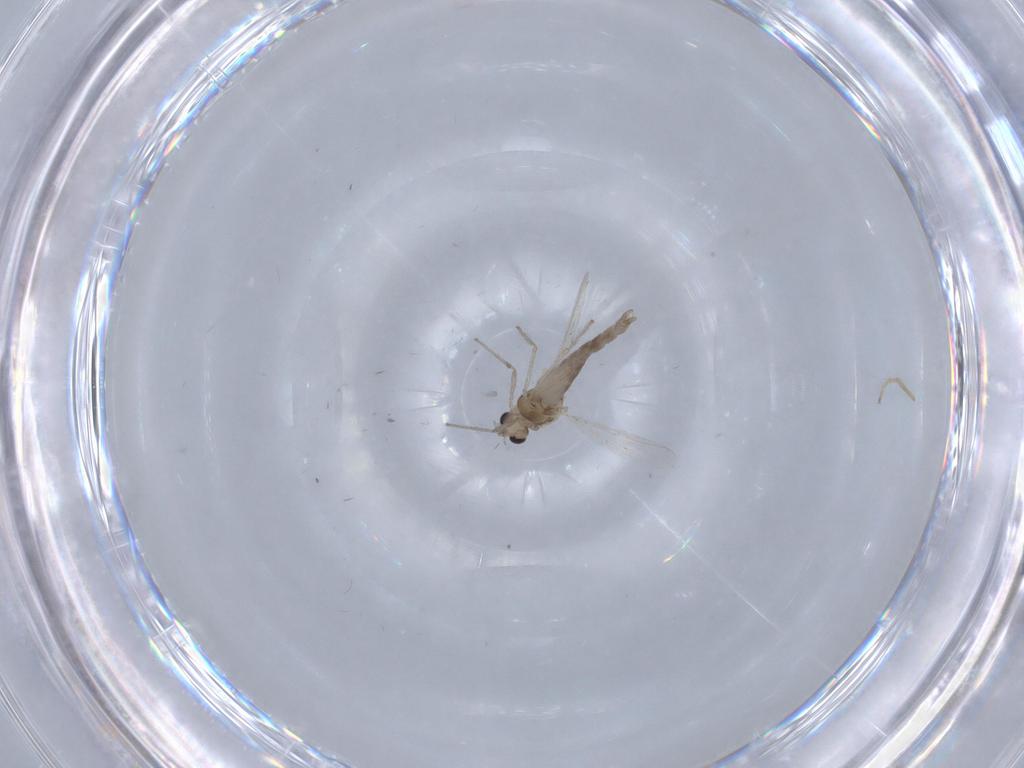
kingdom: Animalia
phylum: Arthropoda
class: Insecta
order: Diptera
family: Chironomidae
